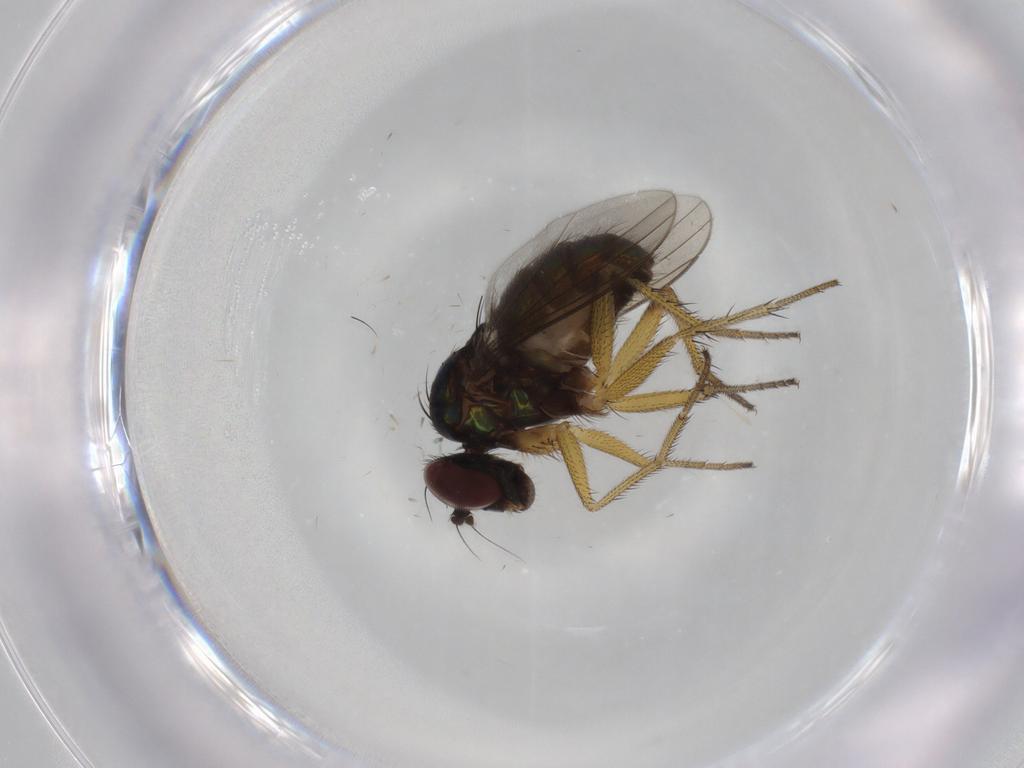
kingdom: Animalia
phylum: Arthropoda
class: Insecta
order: Diptera
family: Dolichopodidae
